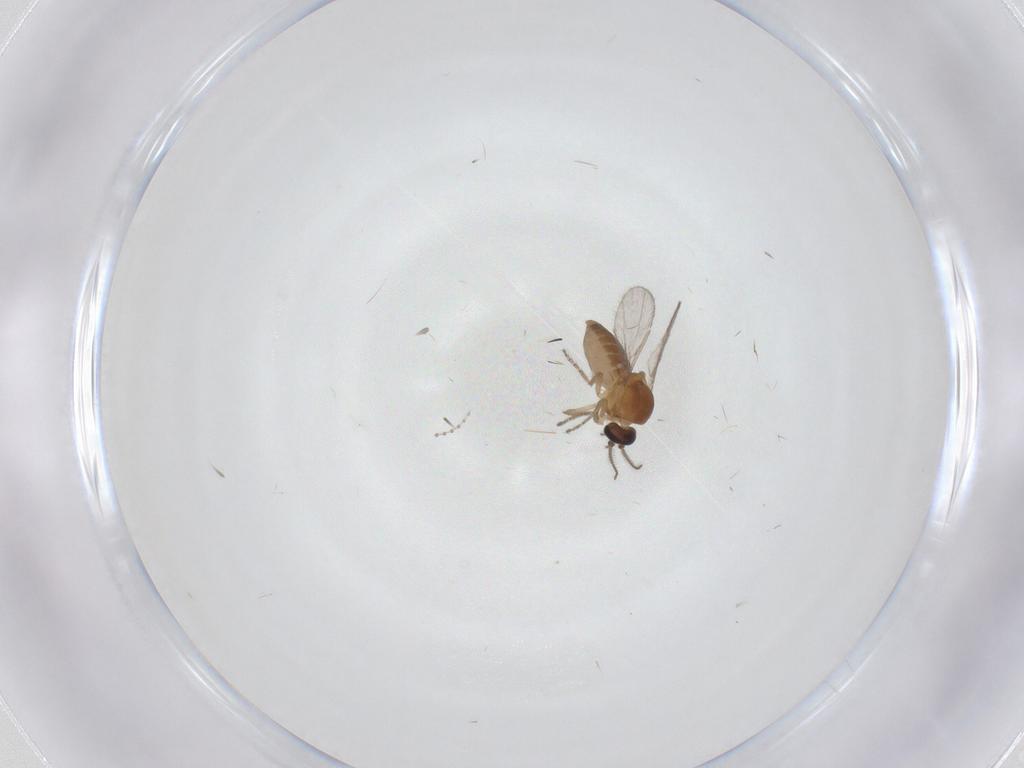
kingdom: Animalia
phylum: Arthropoda
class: Insecta
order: Diptera
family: Ceratopogonidae
